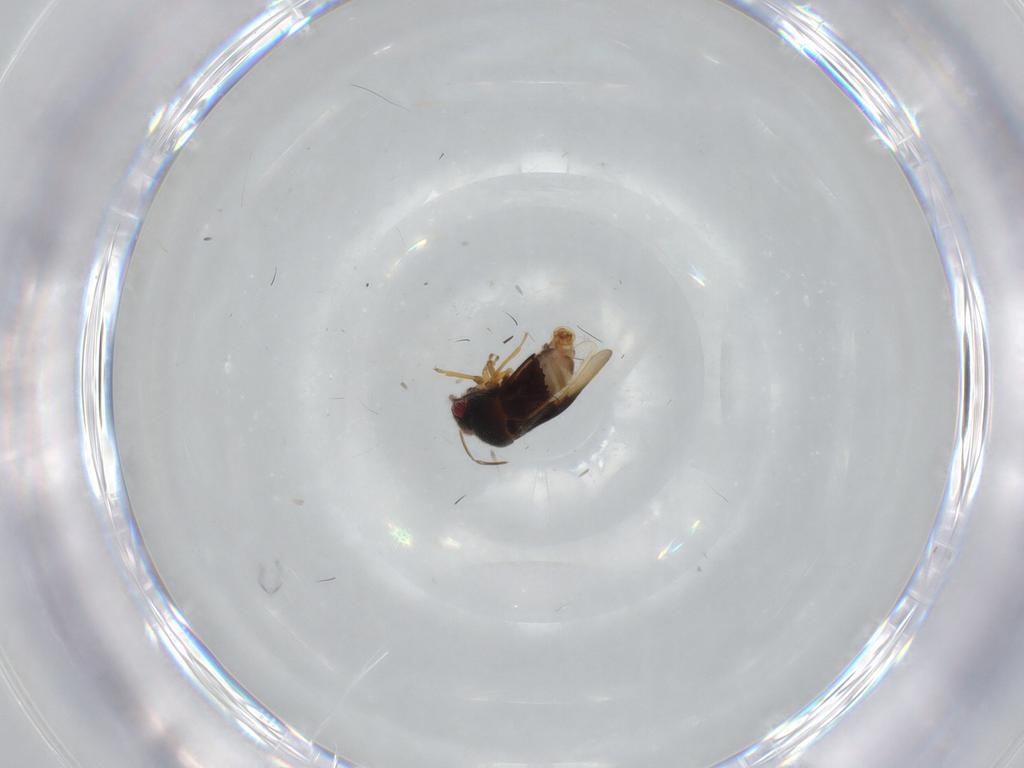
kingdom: Animalia
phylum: Arthropoda
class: Insecta
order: Hemiptera
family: Schizopteridae
